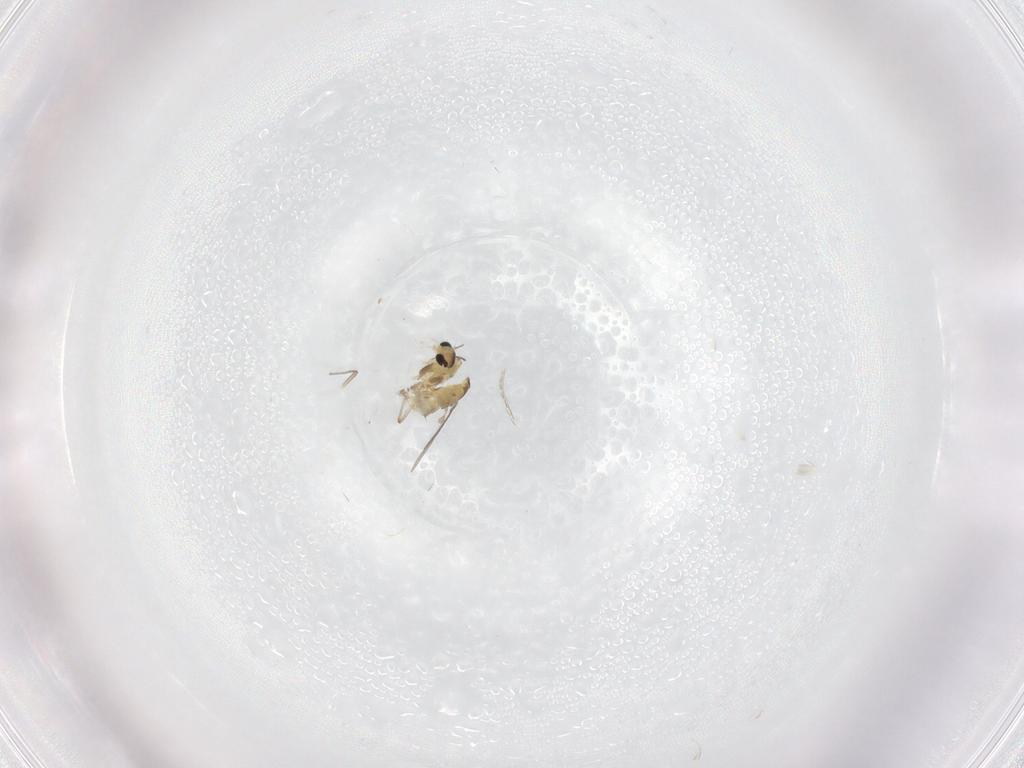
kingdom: Animalia
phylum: Arthropoda
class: Insecta
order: Diptera
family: Chironomidae
